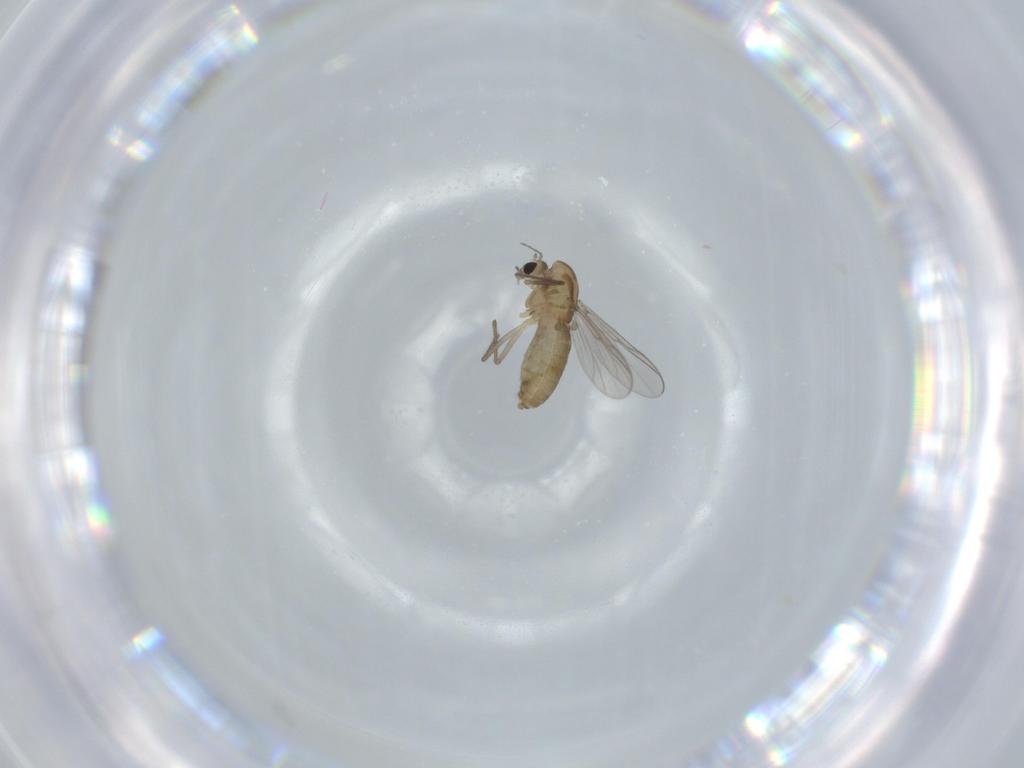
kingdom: Animalia
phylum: Arthropoda
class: Insecta
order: Diptera
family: Chironomidae
